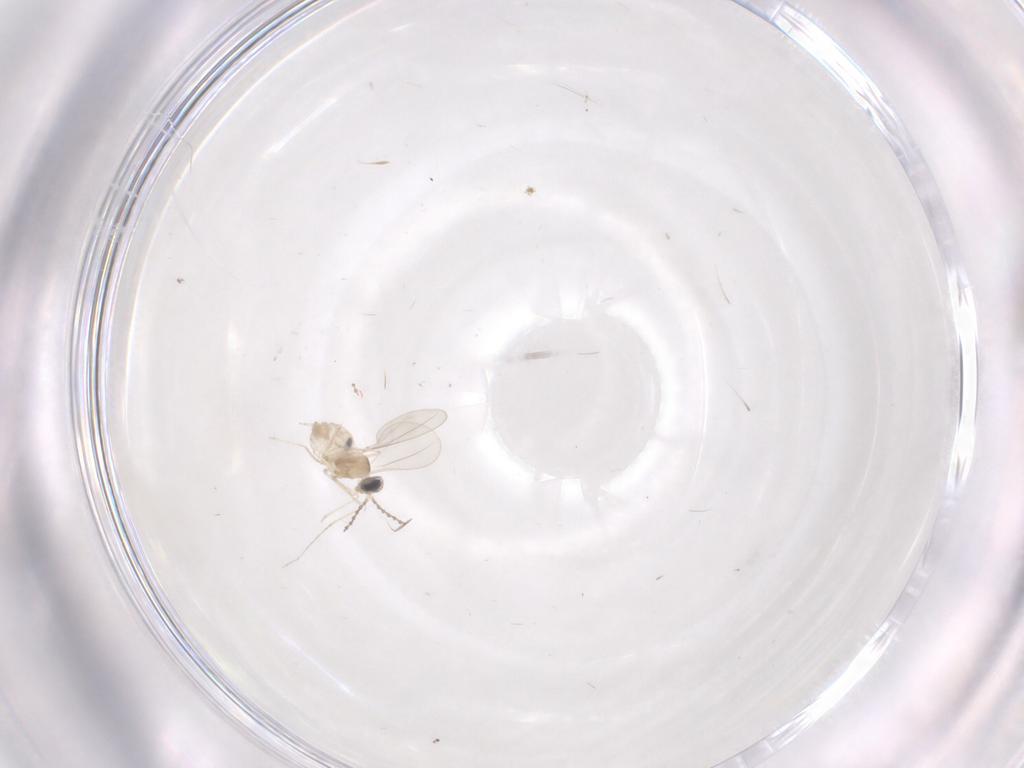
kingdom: Animalia
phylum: Arthropoda
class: Insecta
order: Diptera
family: Cecidomyiidae
